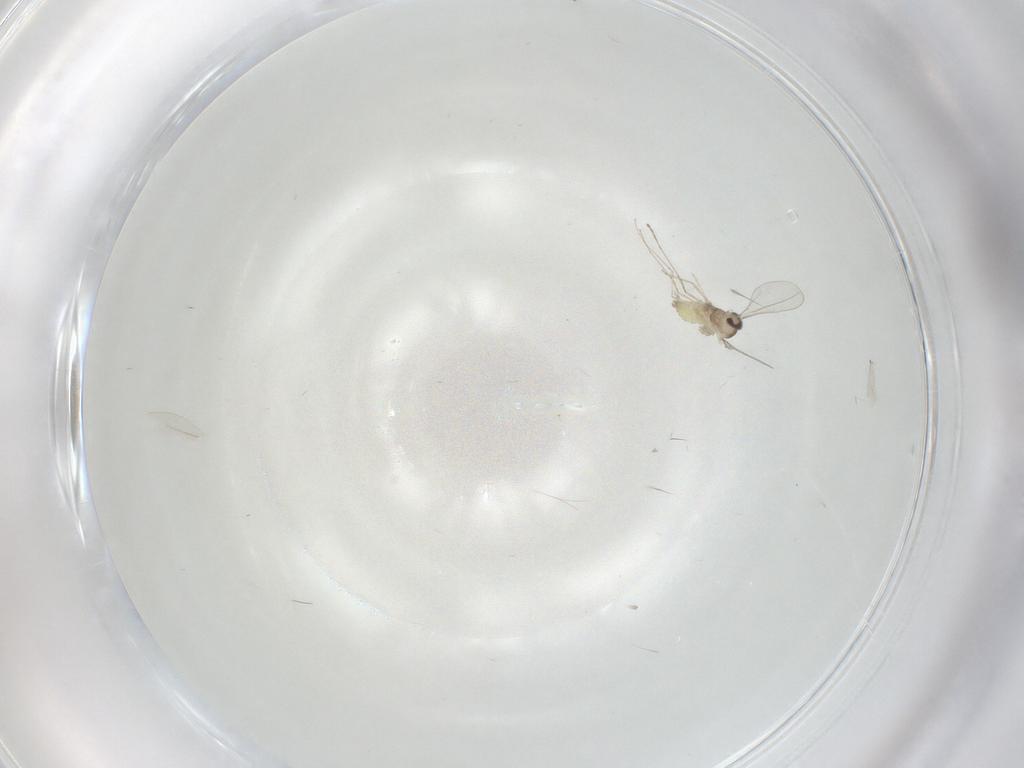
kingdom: Animalia
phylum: Arthropoda
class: Insecta
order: Diptera
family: Cecidomyiidae
